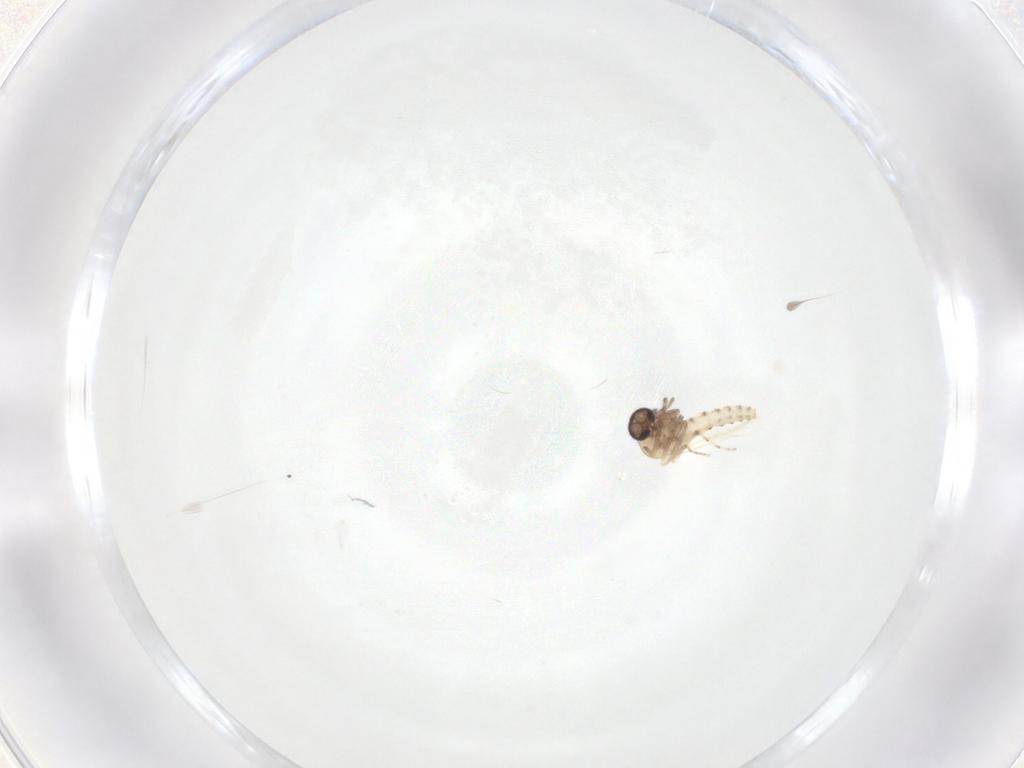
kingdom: Animalia
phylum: Arthropoda
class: Insecta
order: Diptera
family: Ceratopogonidae
